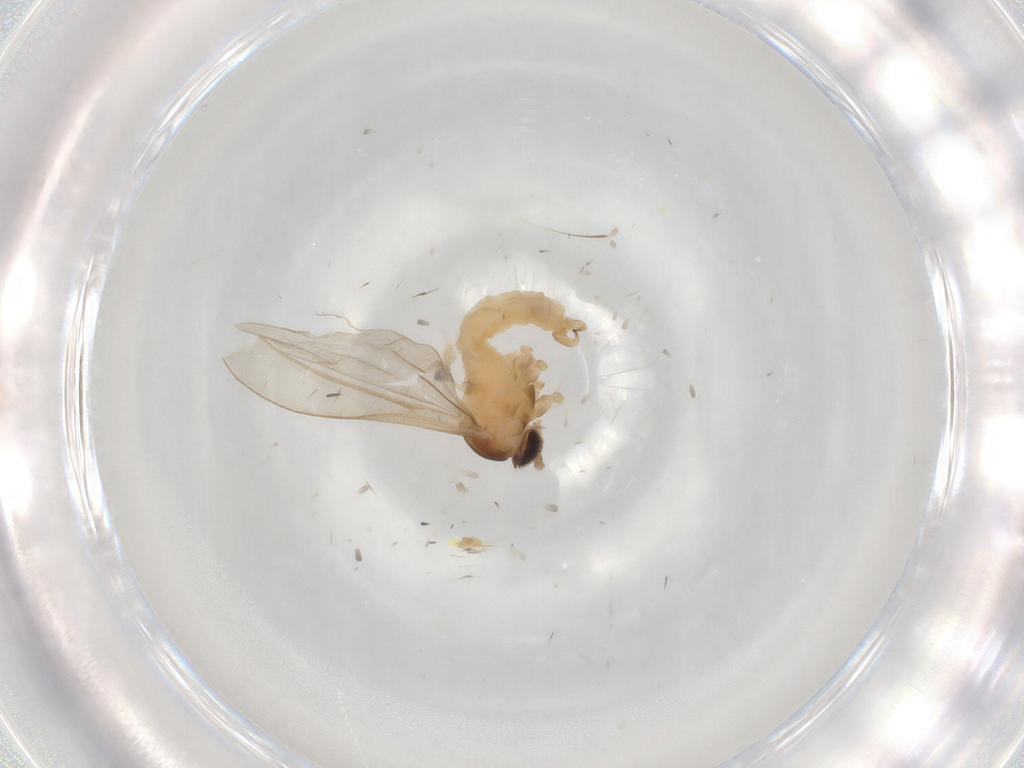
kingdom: Animalia
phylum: Arthropoda
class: Insecta
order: Diptera
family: Cecidomyiidae
